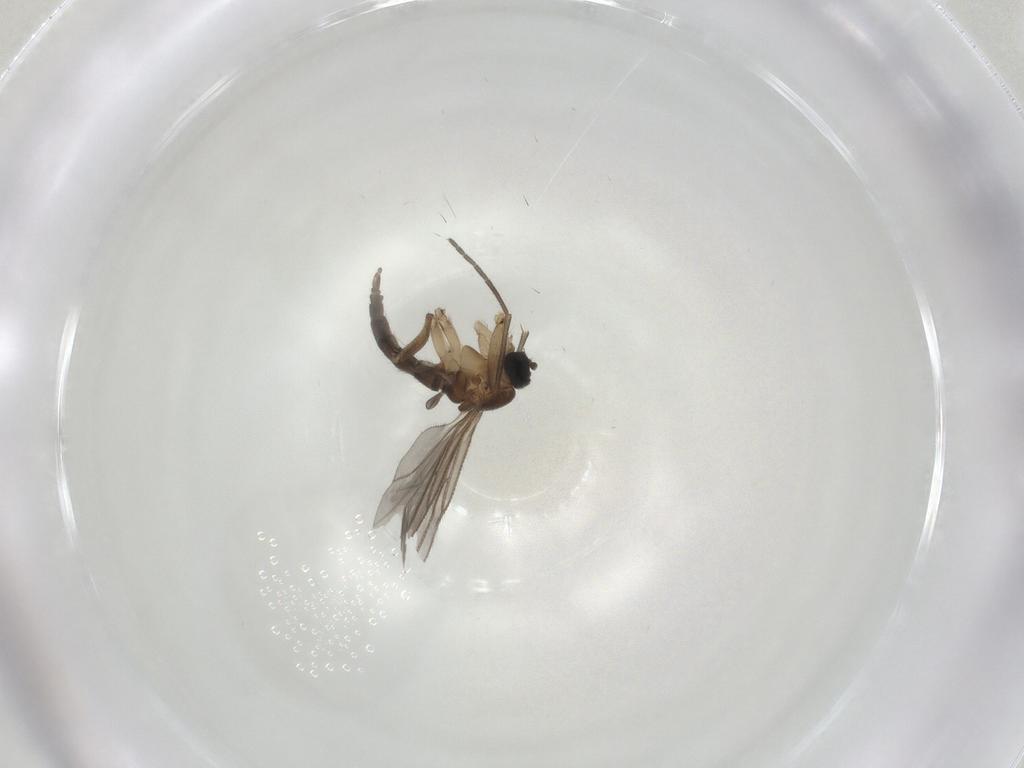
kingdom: Animalia
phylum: Arthropoda
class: Insecta
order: Diptera
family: Sciaridae
